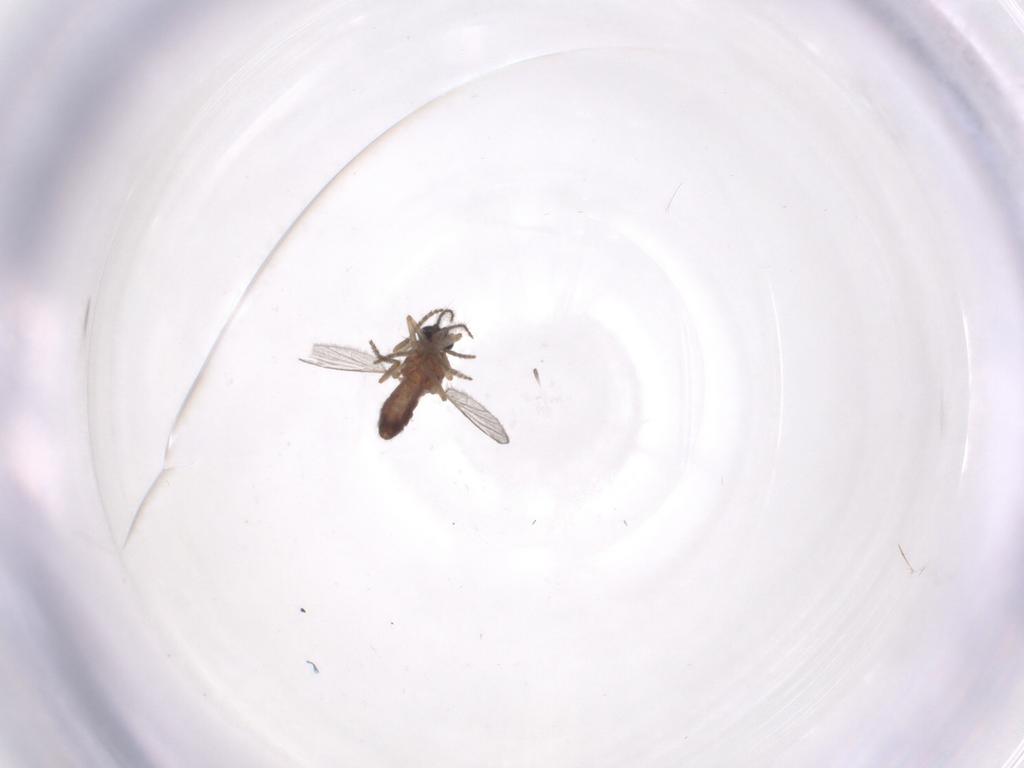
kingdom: Animalia
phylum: Arthropoda
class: Insecta
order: Diptera
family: Ceratopogonidae
